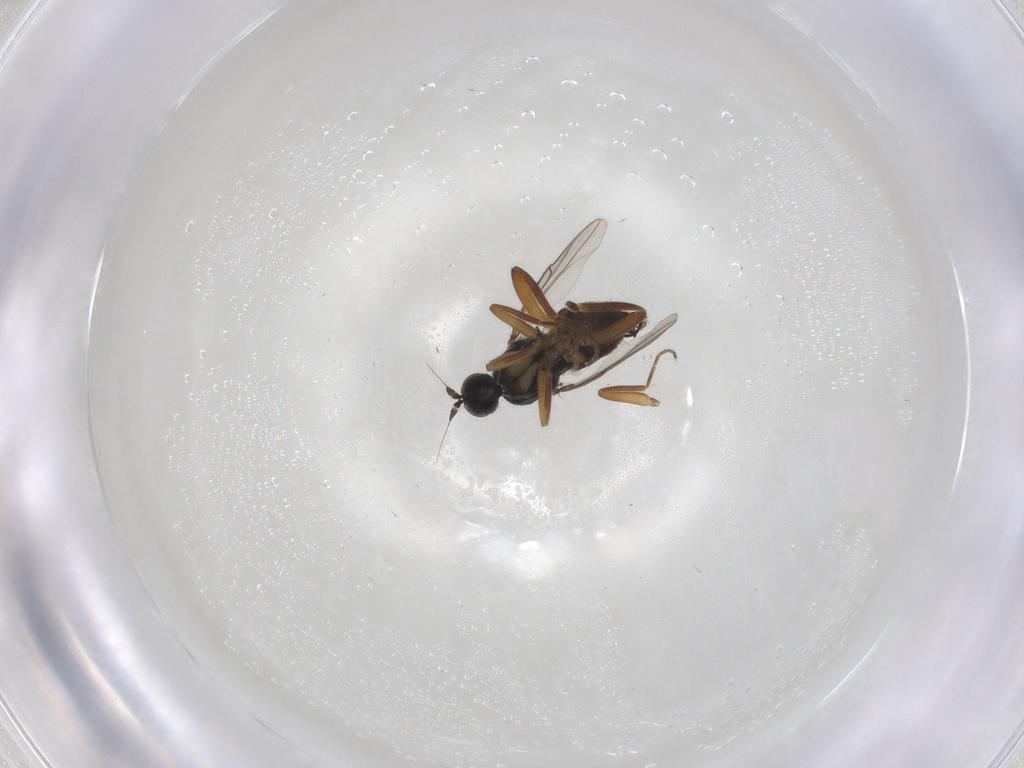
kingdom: Animalia
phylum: Arthropoda
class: Insecta
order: Diptera
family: Hybotidae
